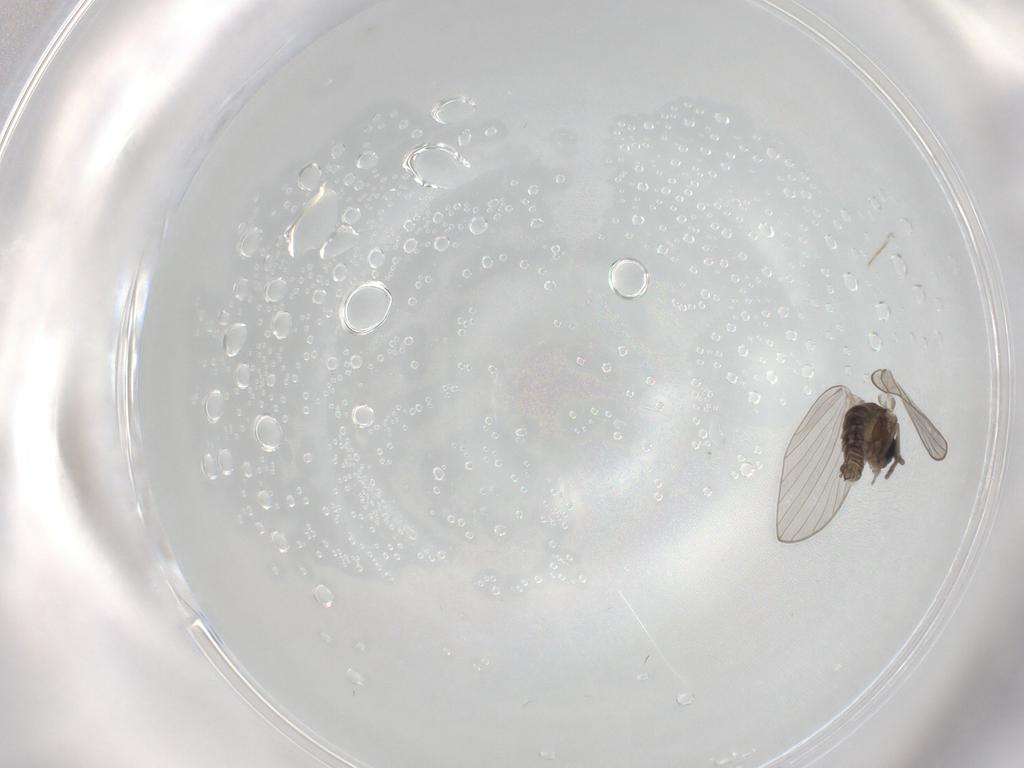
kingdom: Animalia
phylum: Arthropoda
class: Insecta
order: Diptera
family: Psychodidae
